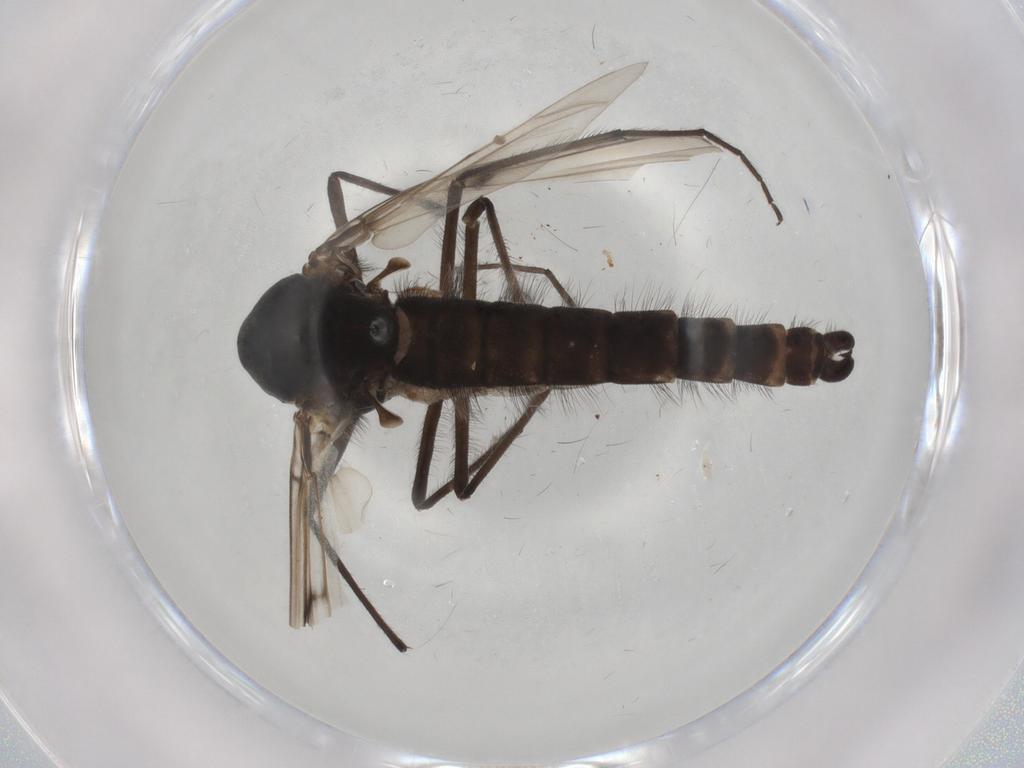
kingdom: Animalia
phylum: Arthropoda
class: Insecta
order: Diptera
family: Chironomidae
